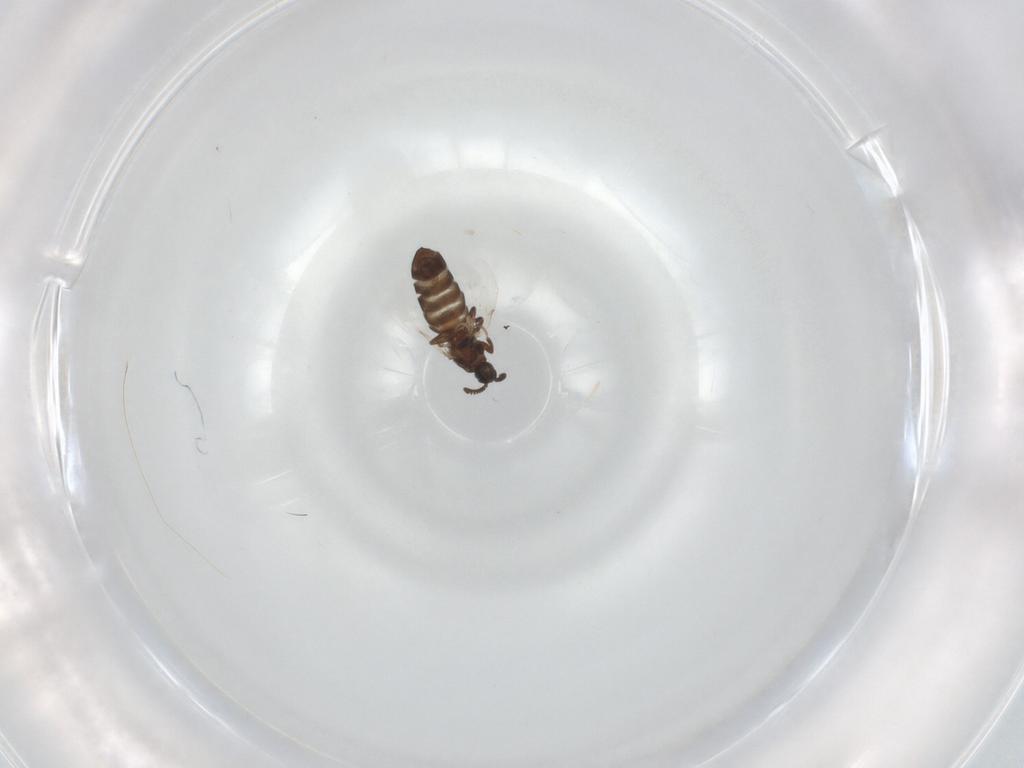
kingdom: Animalia
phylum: Arthropoda
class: Insecta
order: Diptera
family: Scatopsidae
